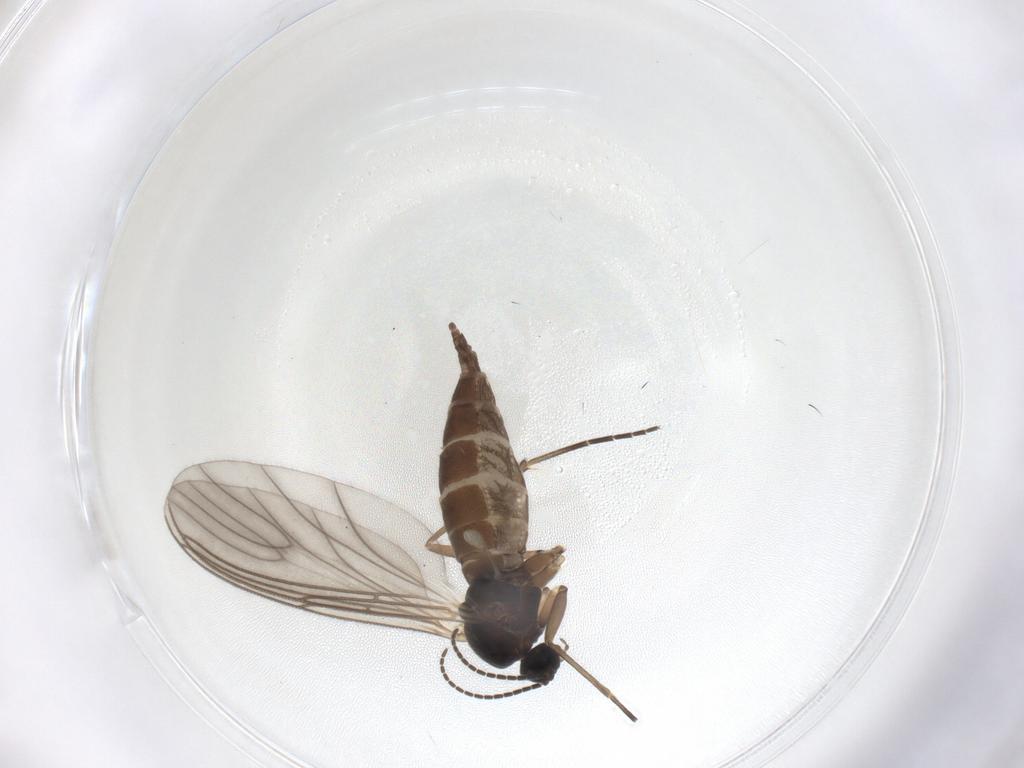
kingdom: Animalia
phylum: Arthropoda
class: Insecta
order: Diptera
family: Sciaridae
